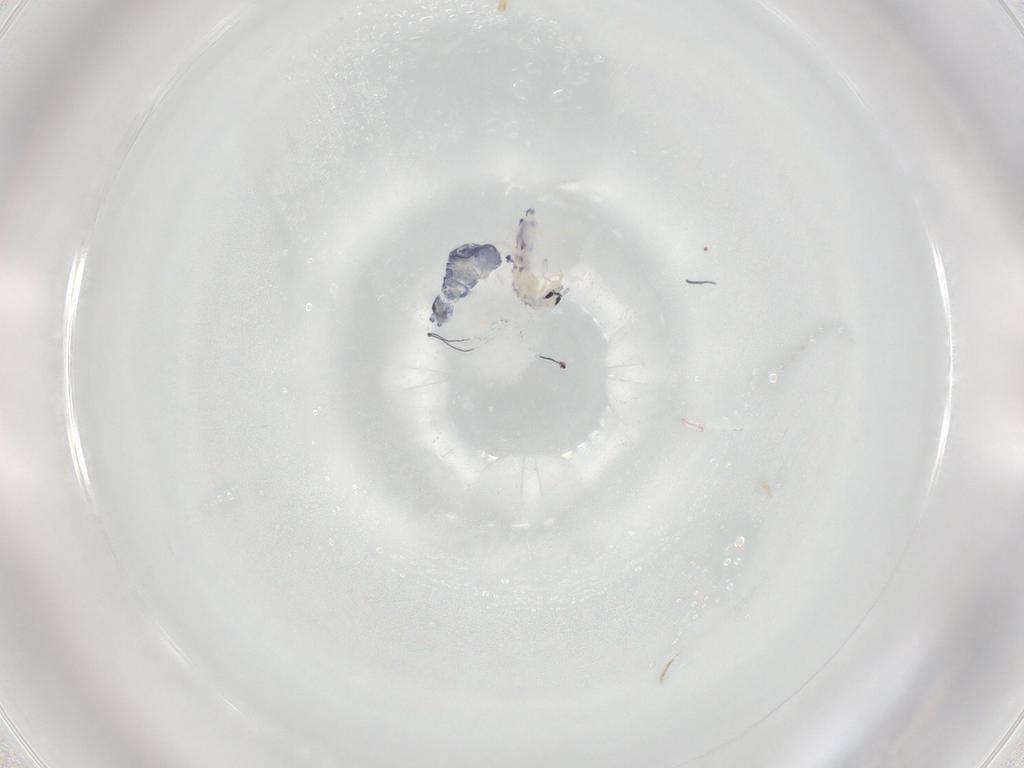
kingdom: Animalia
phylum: Arthropoda
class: Collembola
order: Entomobryomorpha
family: Entomobryidae
